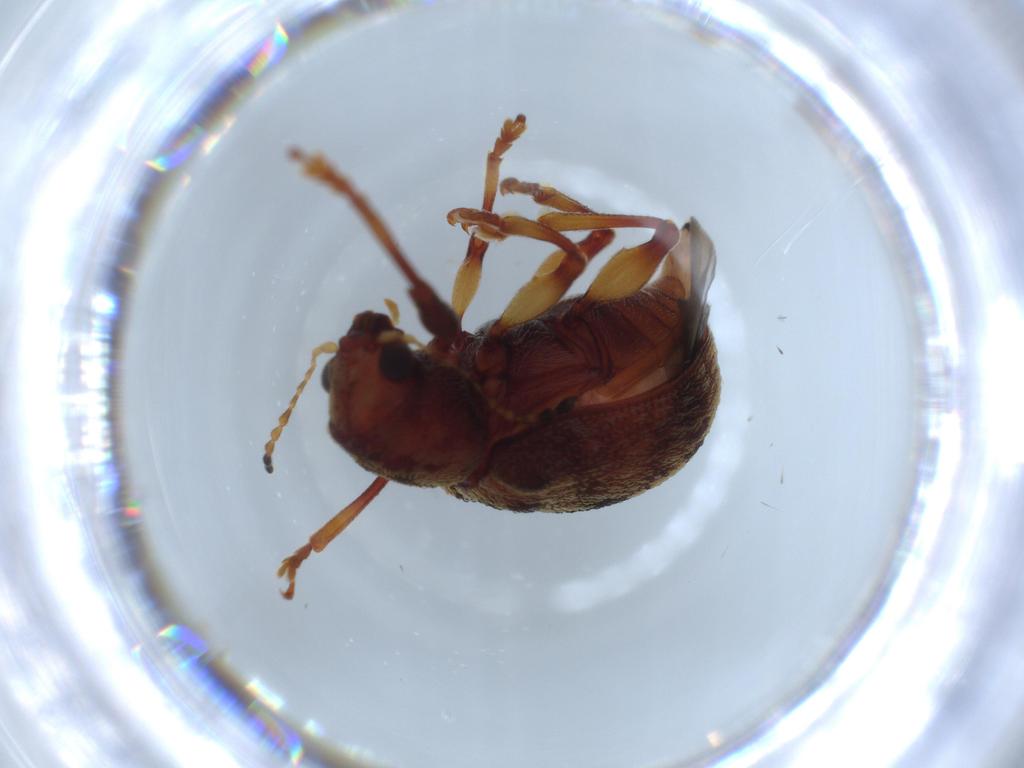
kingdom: Animalia
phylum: Arthropoda
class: Insecta
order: Coleoptera
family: Chrysomelidae
